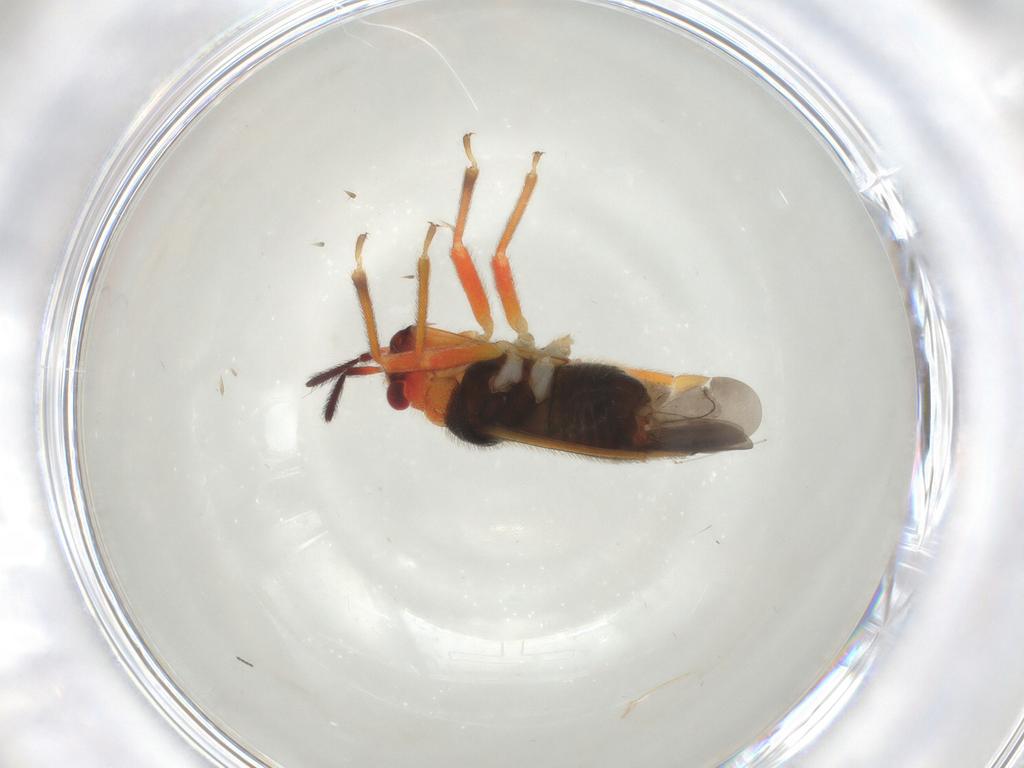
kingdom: Animalia
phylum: Arthropoda
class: Insecta
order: Hemiptera
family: Miridae
